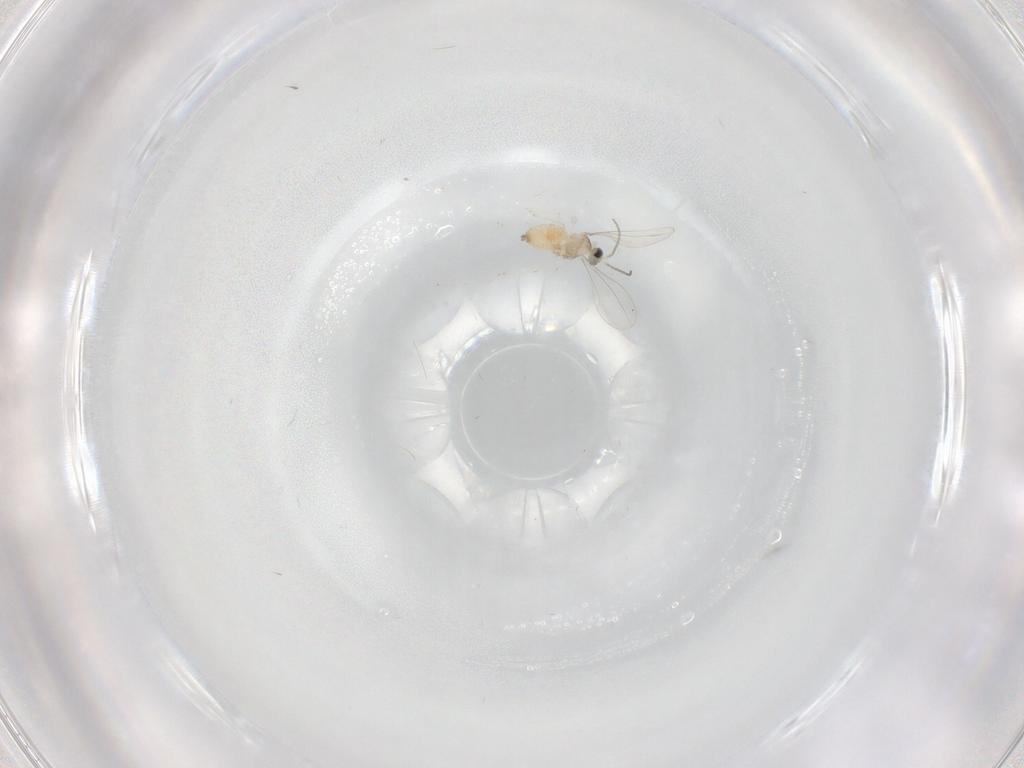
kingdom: Animalia
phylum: Arthropoda
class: Insecta
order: Diptera
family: Cecidomyiidae
